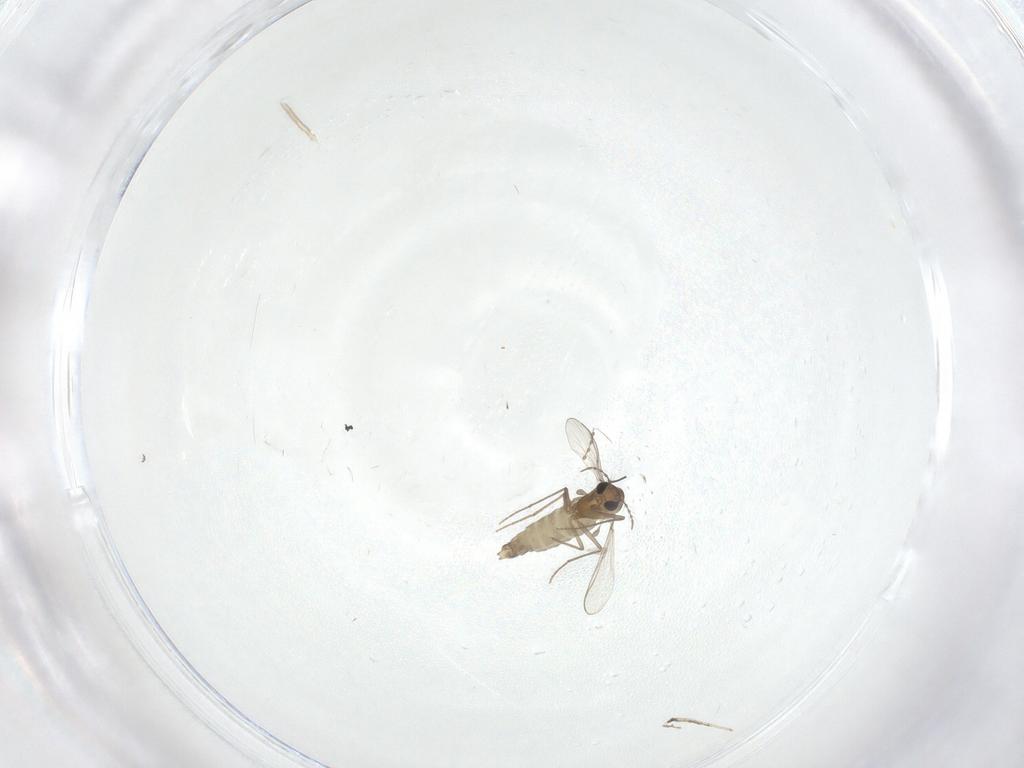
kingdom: Animalia
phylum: Arthropoda
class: Insecta
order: Diptera
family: Chironomidae
